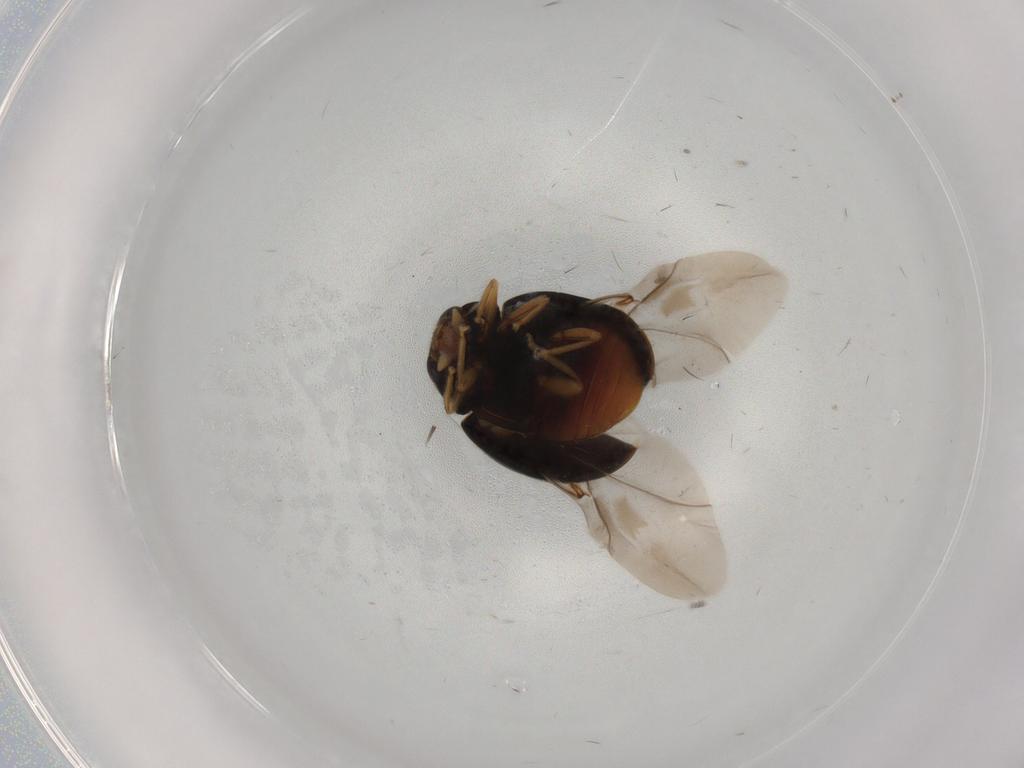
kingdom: Animalia
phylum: Arthropoda
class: Insecta
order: Coleoptera
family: Coccinellidae
